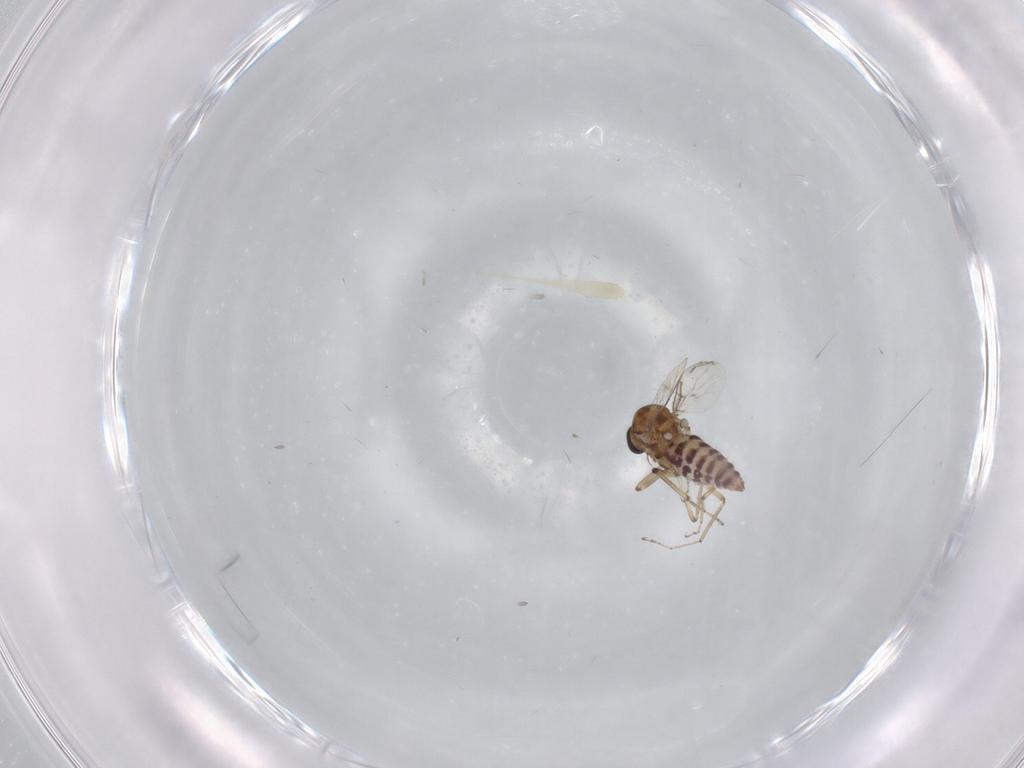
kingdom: Animalia
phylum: Arthropoda
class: Insecta
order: Diptera
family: Ceratopogonidae
